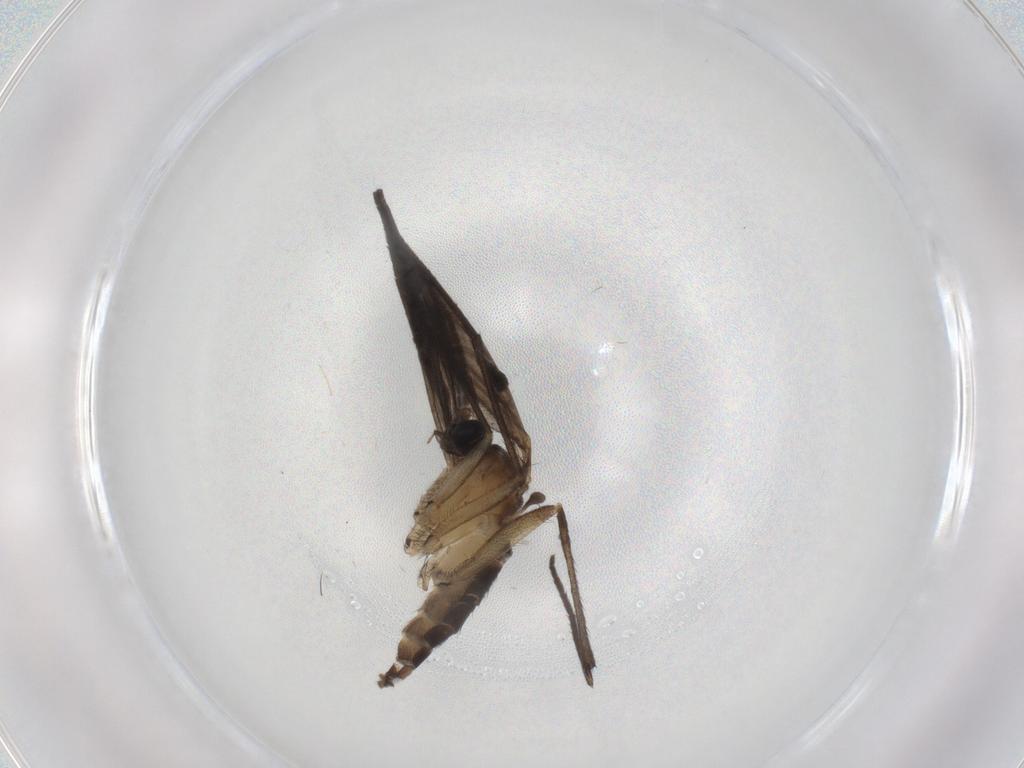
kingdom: Animalia
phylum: Arthropoda
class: Insecta
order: Diptera
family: Sciaridae
